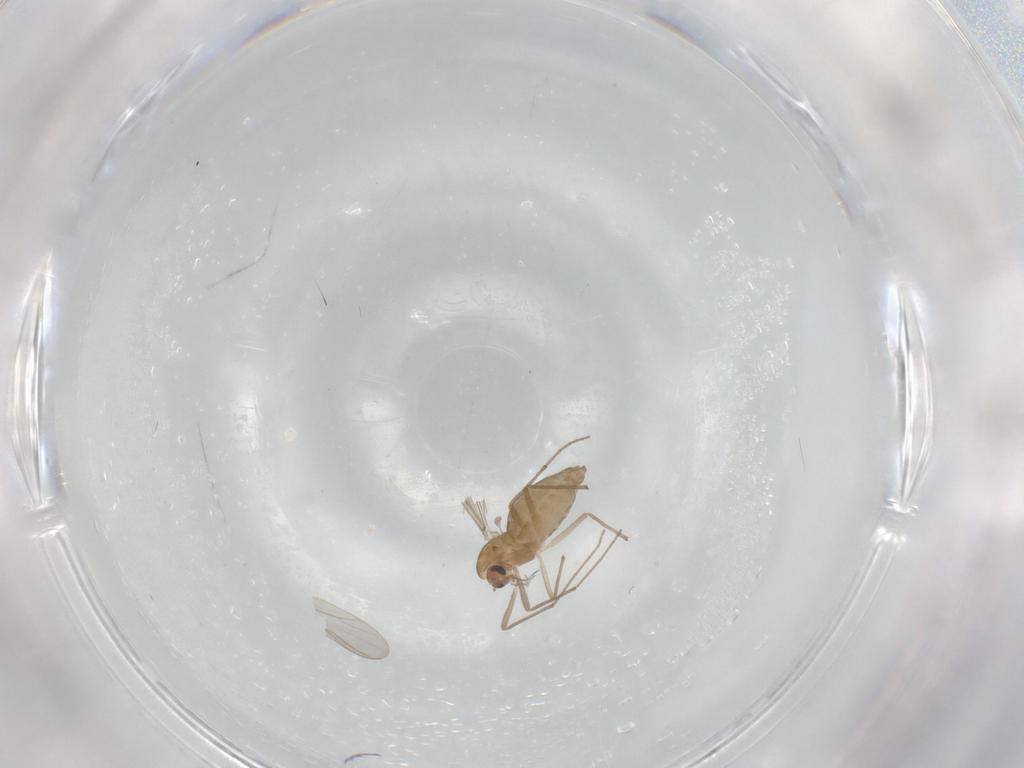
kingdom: Animalia
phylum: Arthropoda
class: Insecta
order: Diptera
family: Chironomidae
